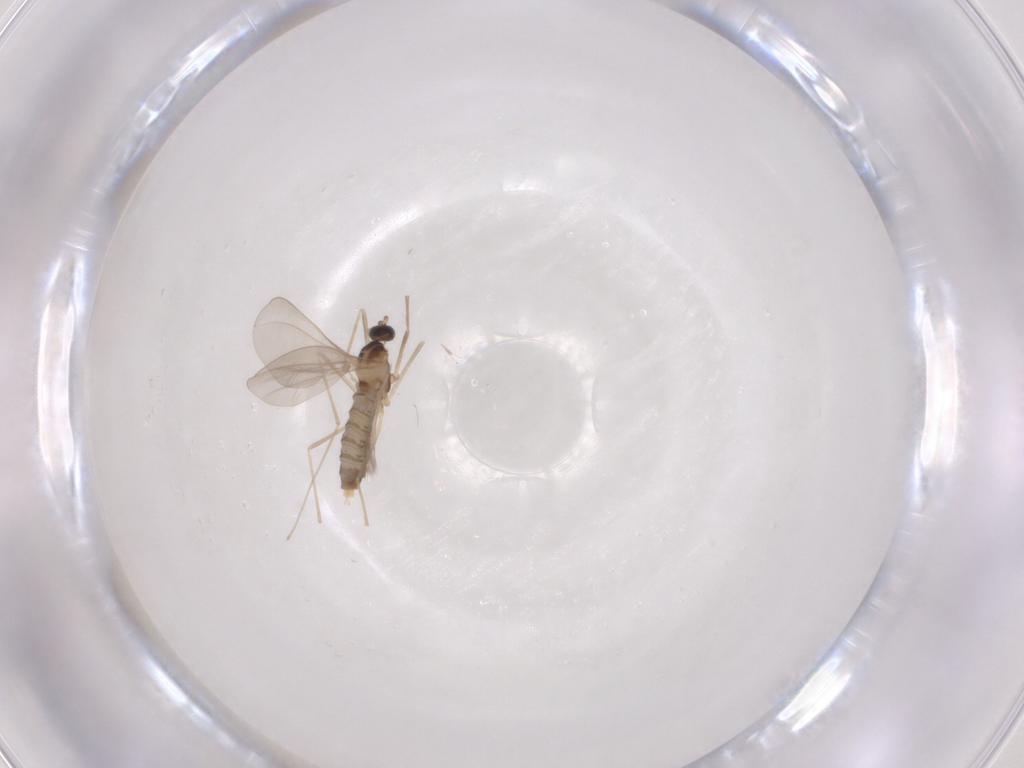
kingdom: Animalia
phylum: Arthropoda
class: Insecta
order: Diptera
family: Cecidomyiidae
